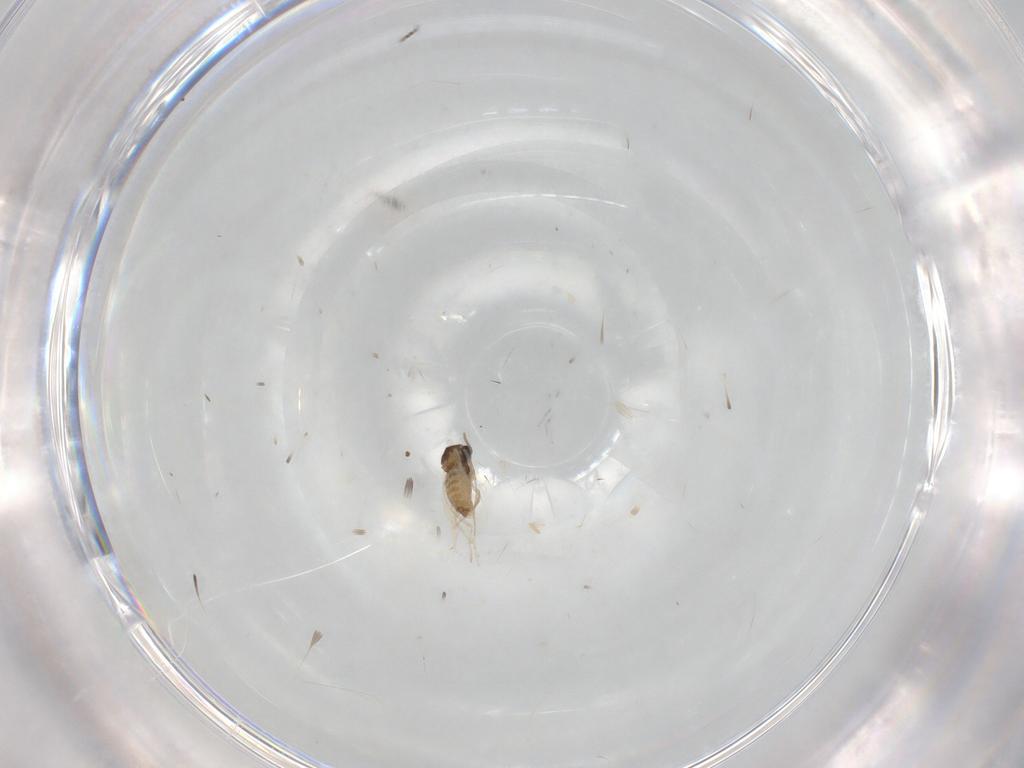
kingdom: Animalia
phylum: Arthropoda
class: Insecta
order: Diptera
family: Cecidomyiidae
